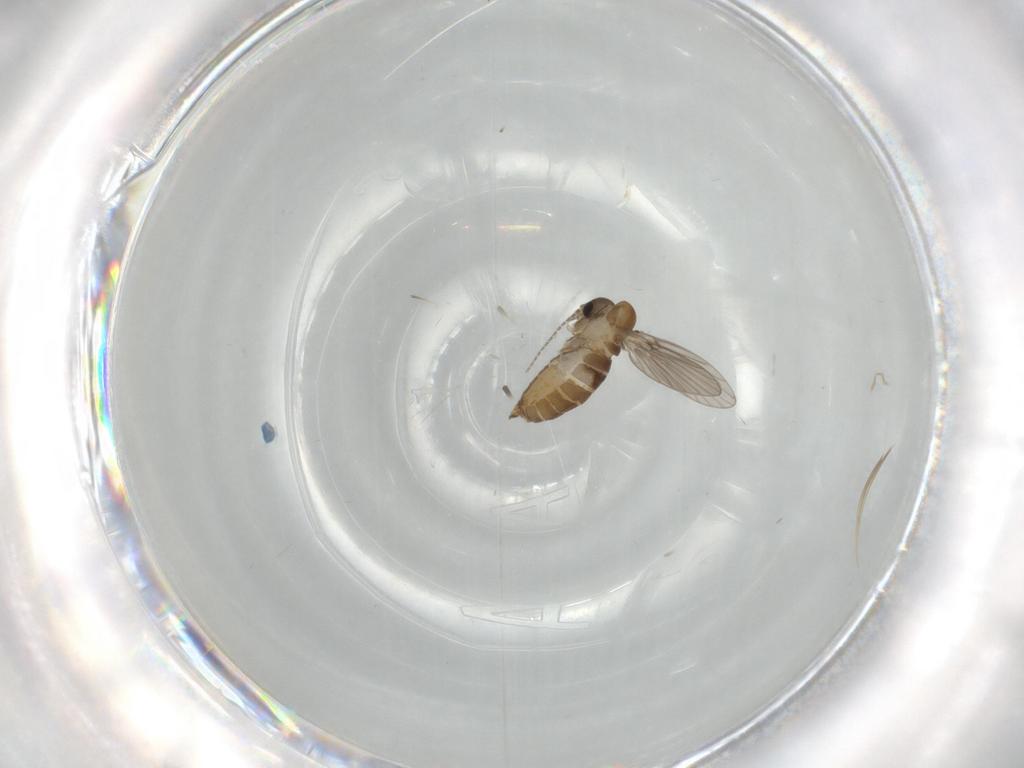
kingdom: Animalia
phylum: Arthropoda
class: Insecta
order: Diptera
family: Psychodidae
